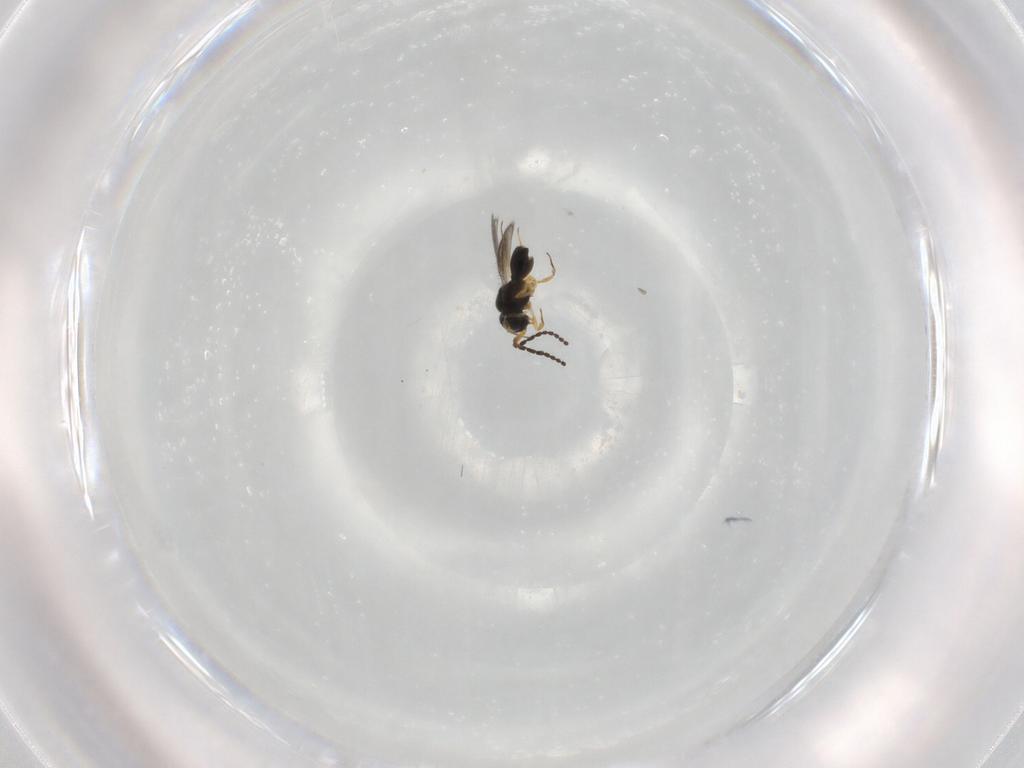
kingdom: Animalia
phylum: Arthropoda
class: Insecta
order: Hymenoptera
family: Scelionidae
